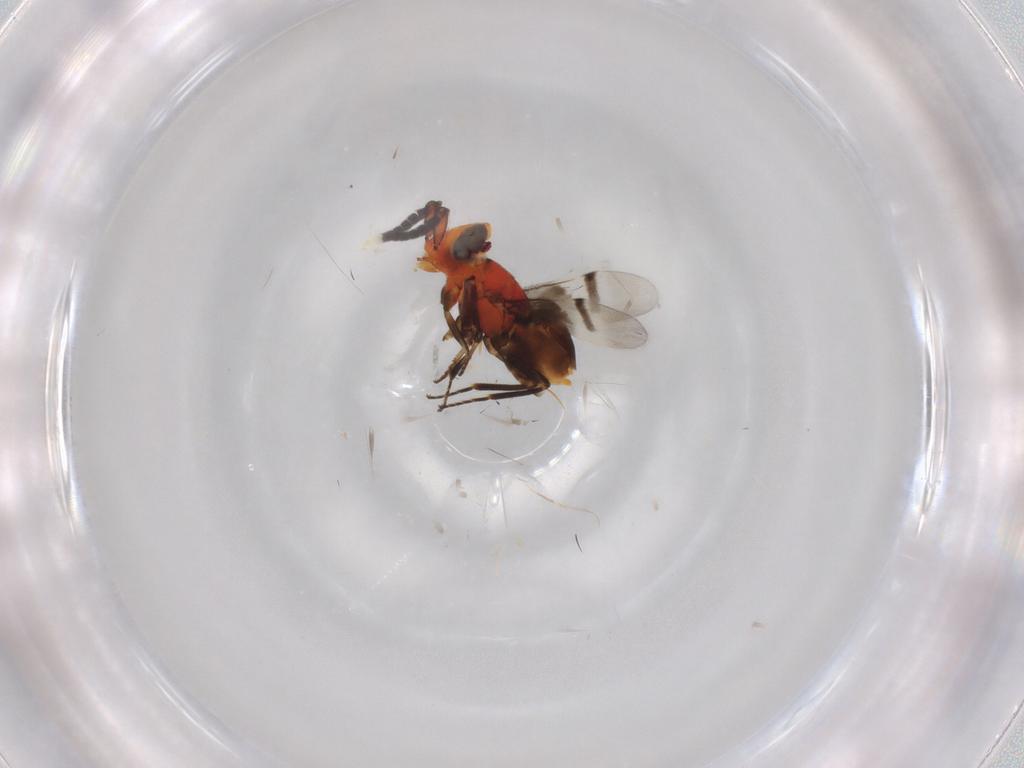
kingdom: Animalia
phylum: Arthropoda
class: Insecta
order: Hymenoptera
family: Encyrtidae
